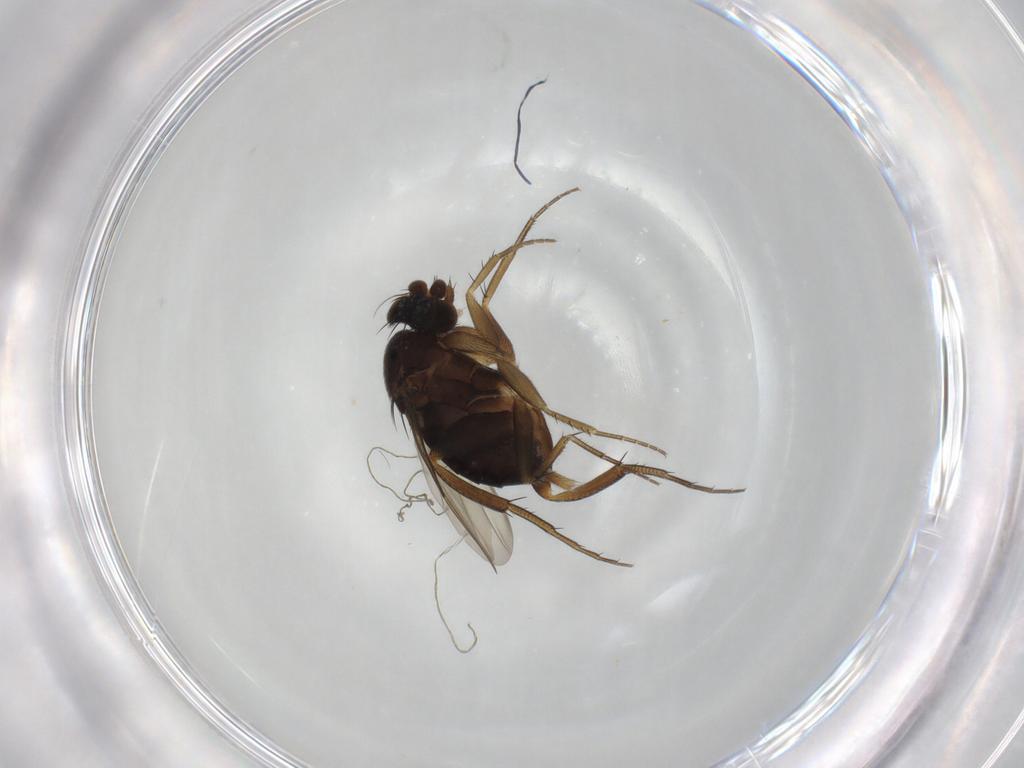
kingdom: Animalia
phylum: Arthropoda
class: Insecta
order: Diptera
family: Phoridae
